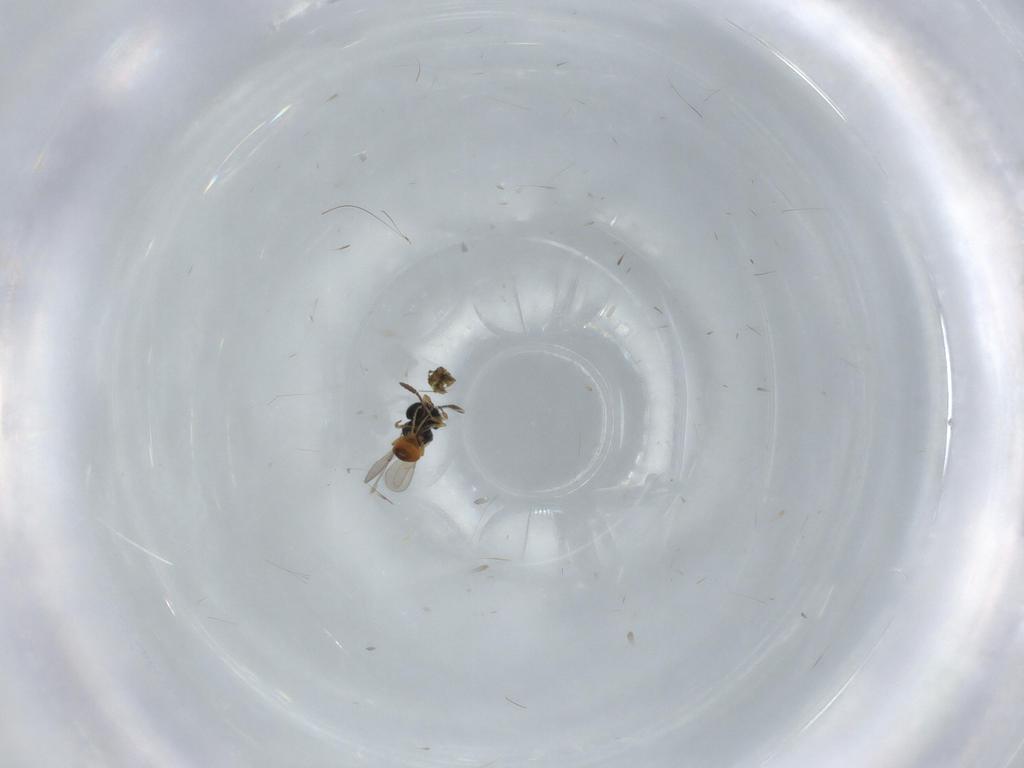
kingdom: Animalia
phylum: Arthropoda
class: Insecta
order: Hymenoptera
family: Scelionidae
